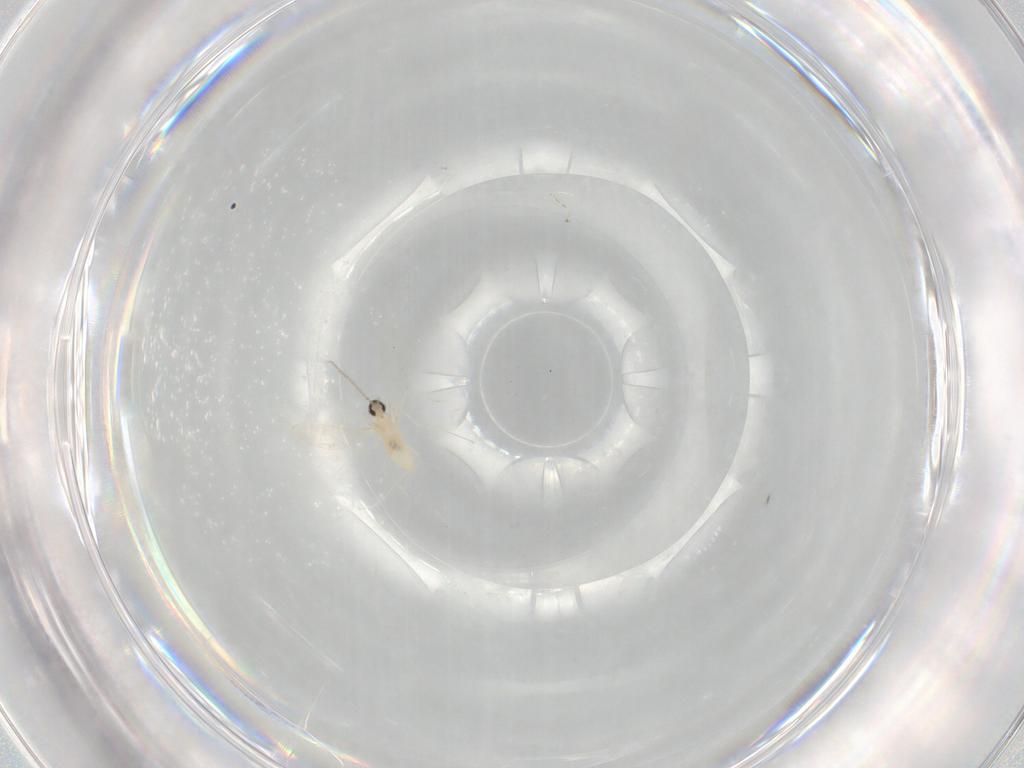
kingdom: Animalia
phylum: Arthropoda
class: Insecta
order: Diptera
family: Cecidomyiidae
